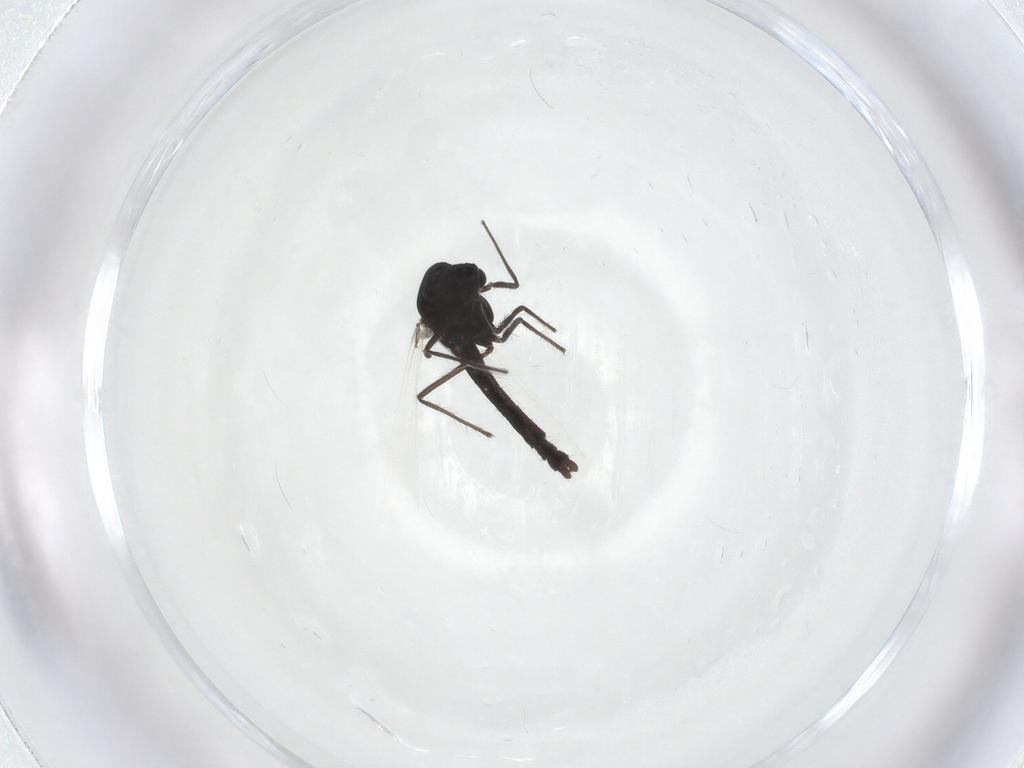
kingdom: Animalia
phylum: Arthropoda
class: Insecta
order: Diptera
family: Chironomidae
